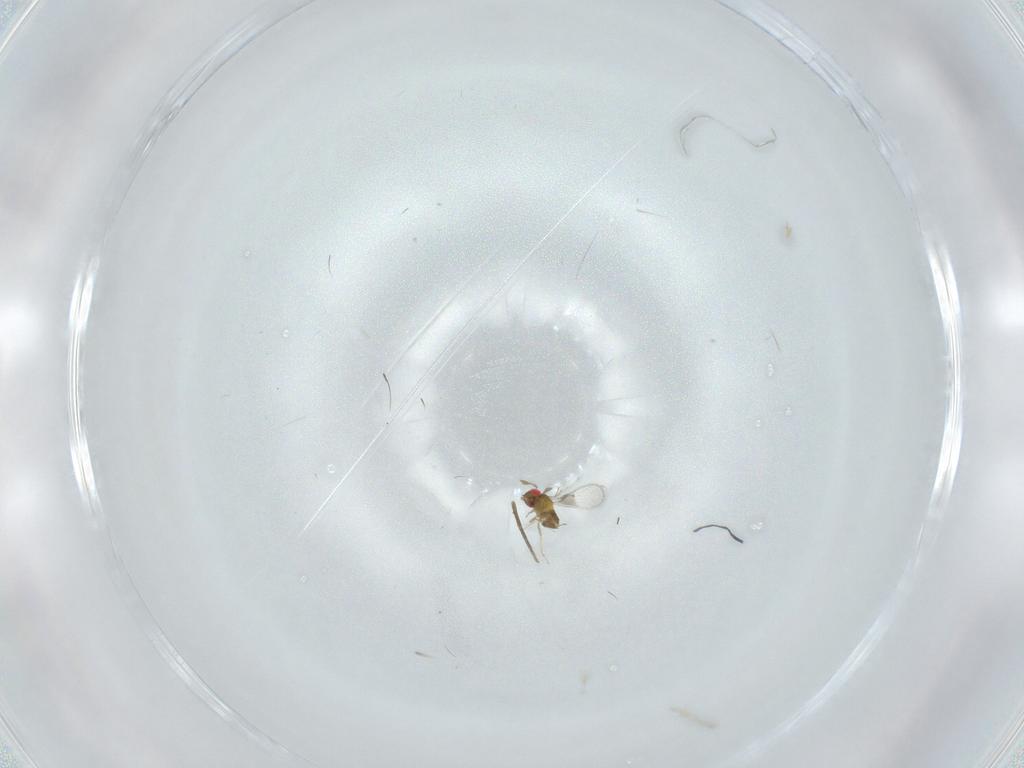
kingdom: Animalia
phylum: Arthropoda
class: Insecta
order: Hymenoptera
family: Trichogrammatidae
